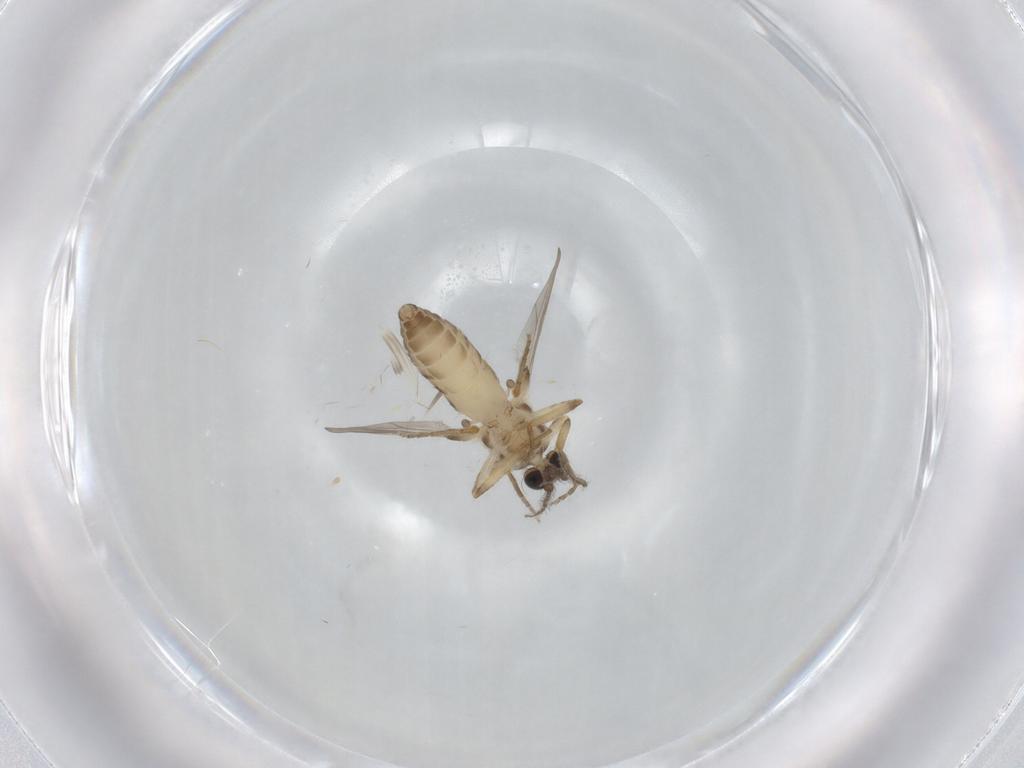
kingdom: Animalia
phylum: Arthropoda
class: Insecta
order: Diptera
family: Ceratopogonidae
